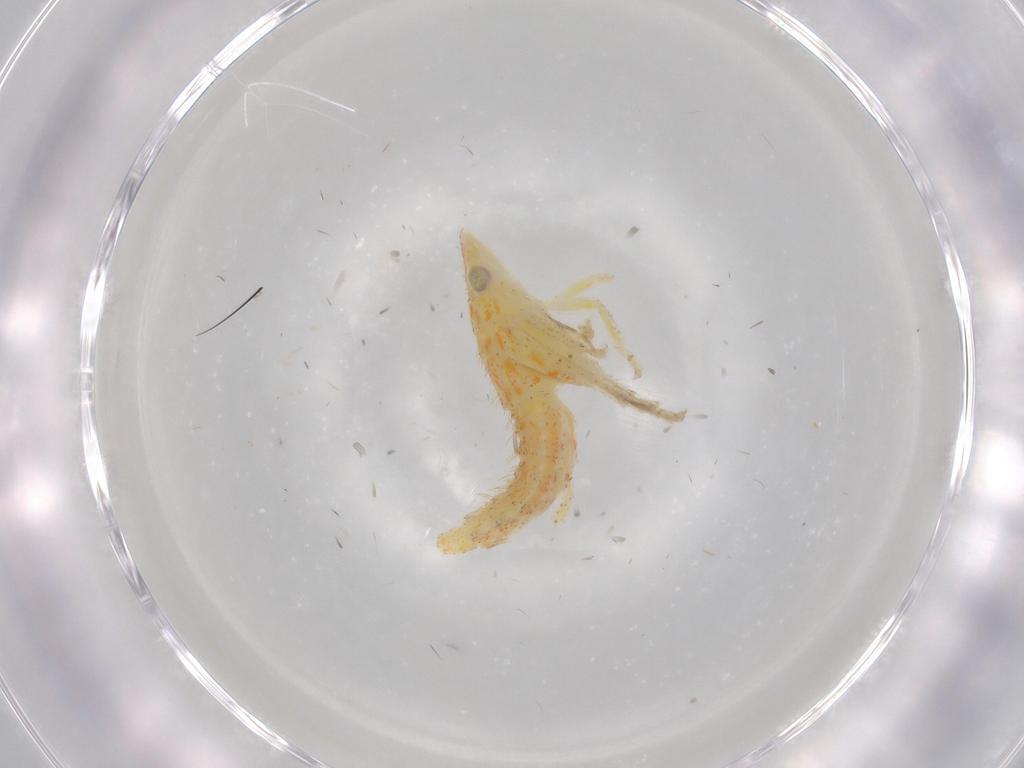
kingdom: Animalia
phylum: Arthropoda
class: Insecta
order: Hemiptera
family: Cicadellidae
